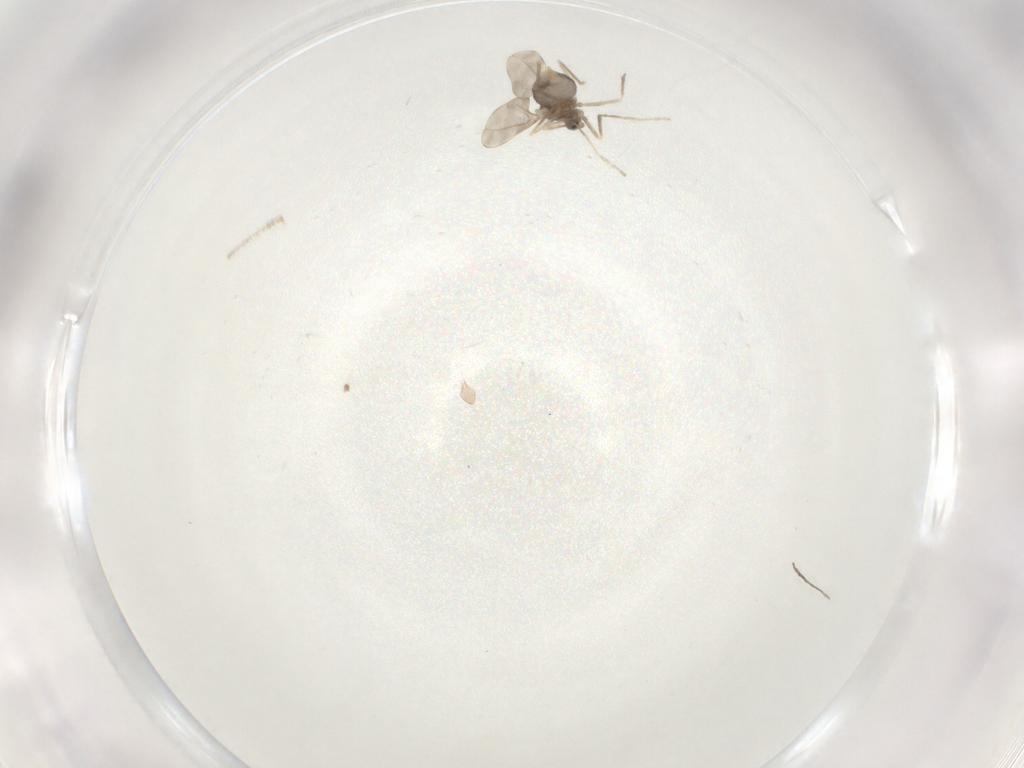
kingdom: Animalia
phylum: Arthropoda
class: Insecta
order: Diptera
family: Cecidomyiidae
